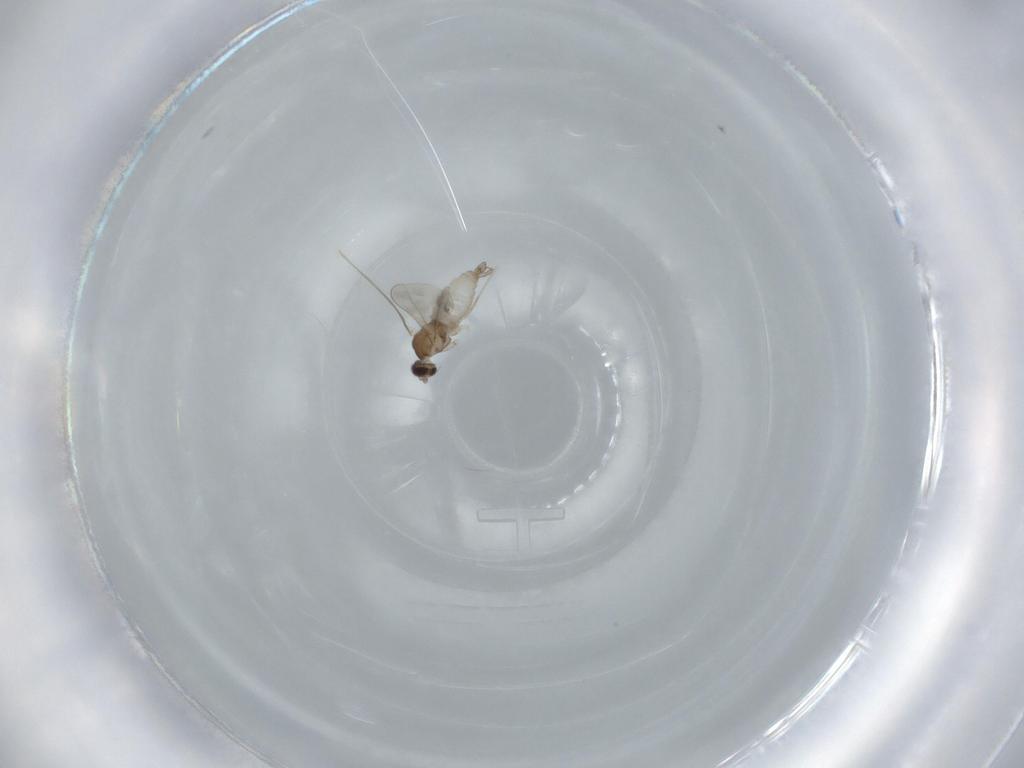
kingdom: Animalia
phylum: Arthropoda
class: Insecta
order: Diptera
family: Cecidomyiidae
